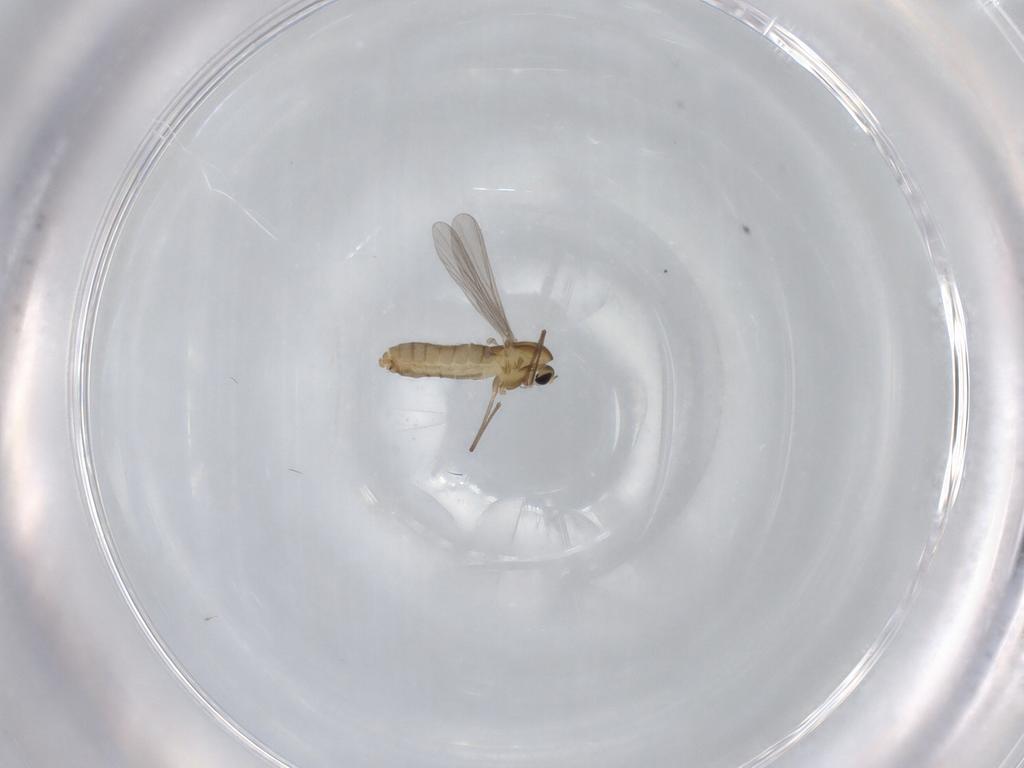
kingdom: Animalia
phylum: Arthropoda
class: Insecta
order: Diptera
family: Chironomidae
